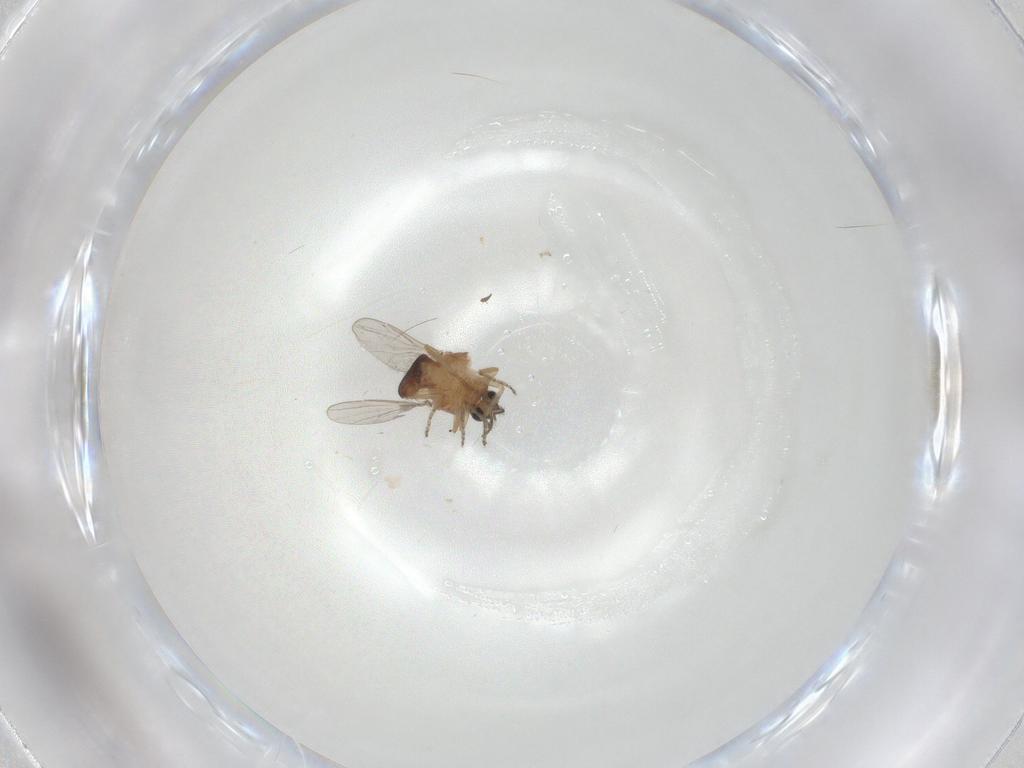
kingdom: Animalia
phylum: Arthropoda
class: Insecta
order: Diptera
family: Ceratopogonidae
